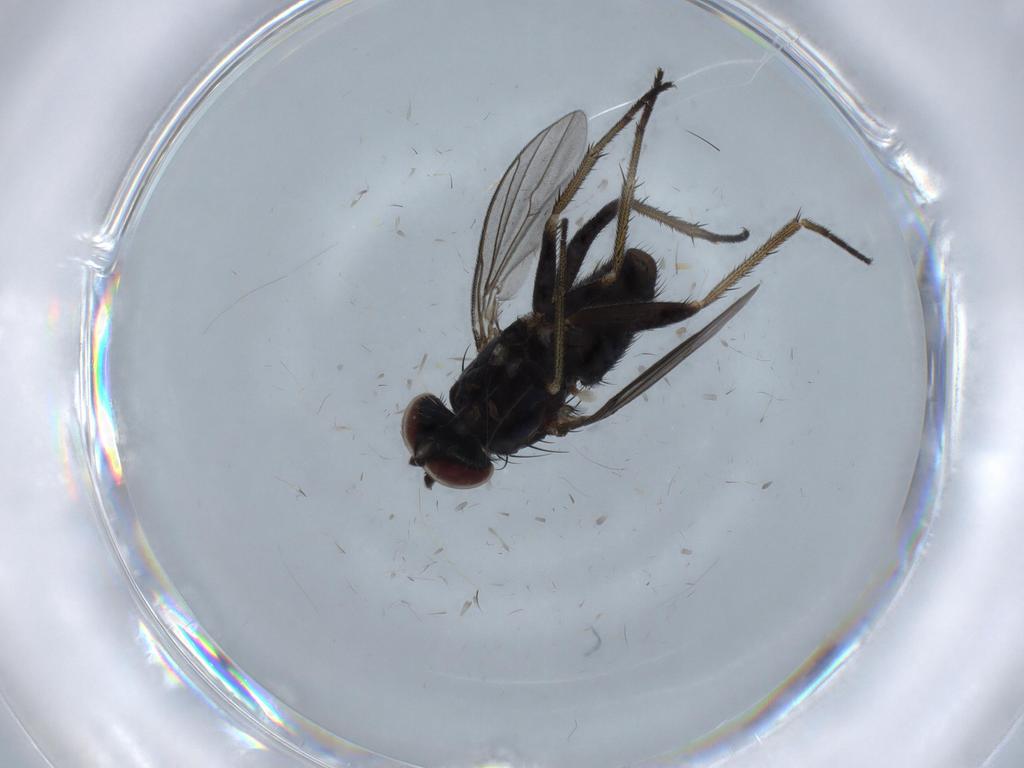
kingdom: Animalia
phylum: Arthropoda
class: Insecta
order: Diptera
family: Dolichopodidae
